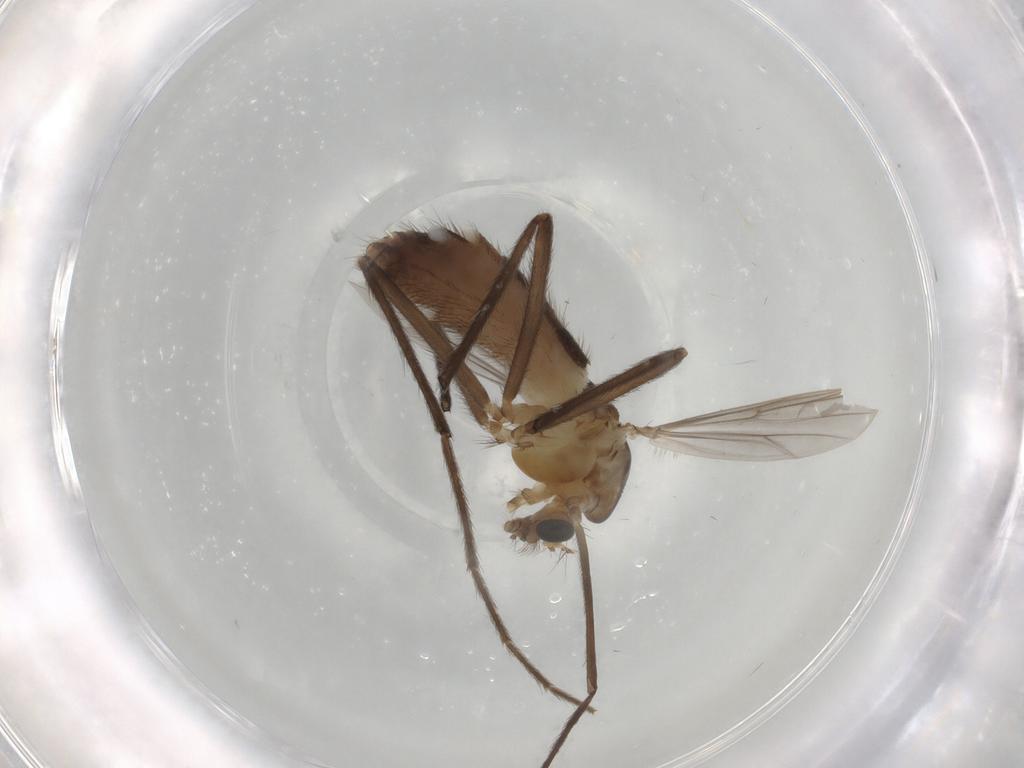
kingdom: Animalia
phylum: Arthropoda
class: Insecta
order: Diptera
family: Chironomidae
